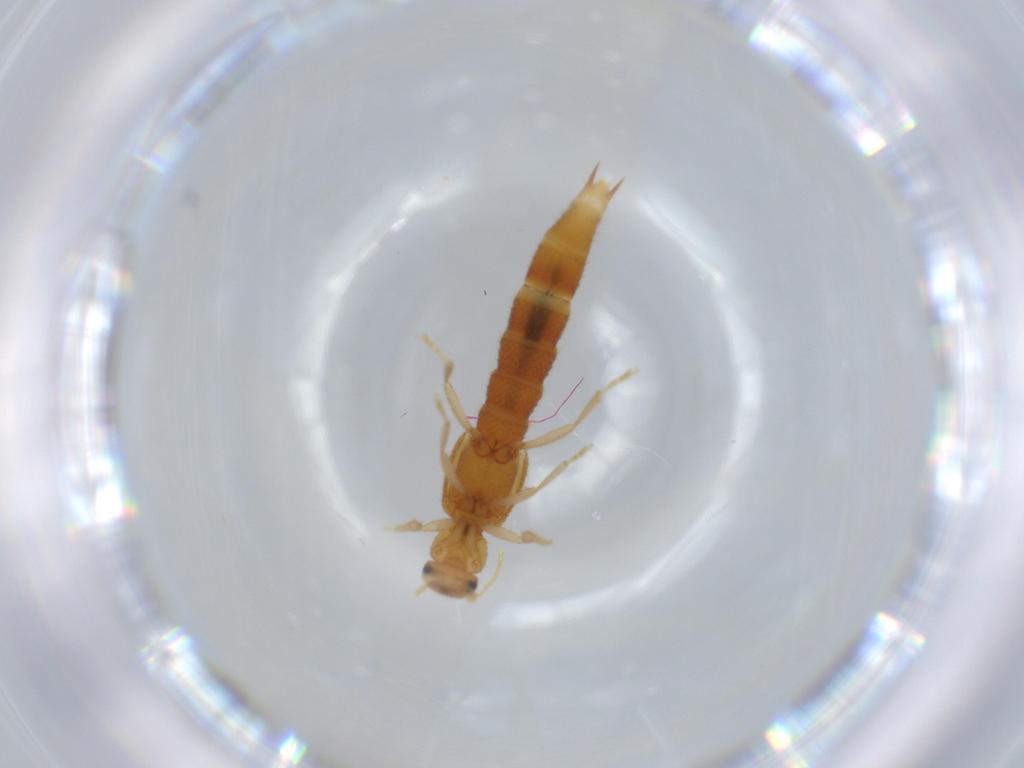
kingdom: Animalia
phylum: Arthropoda
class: Insecta
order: Coleoptera
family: Staphylinidae
